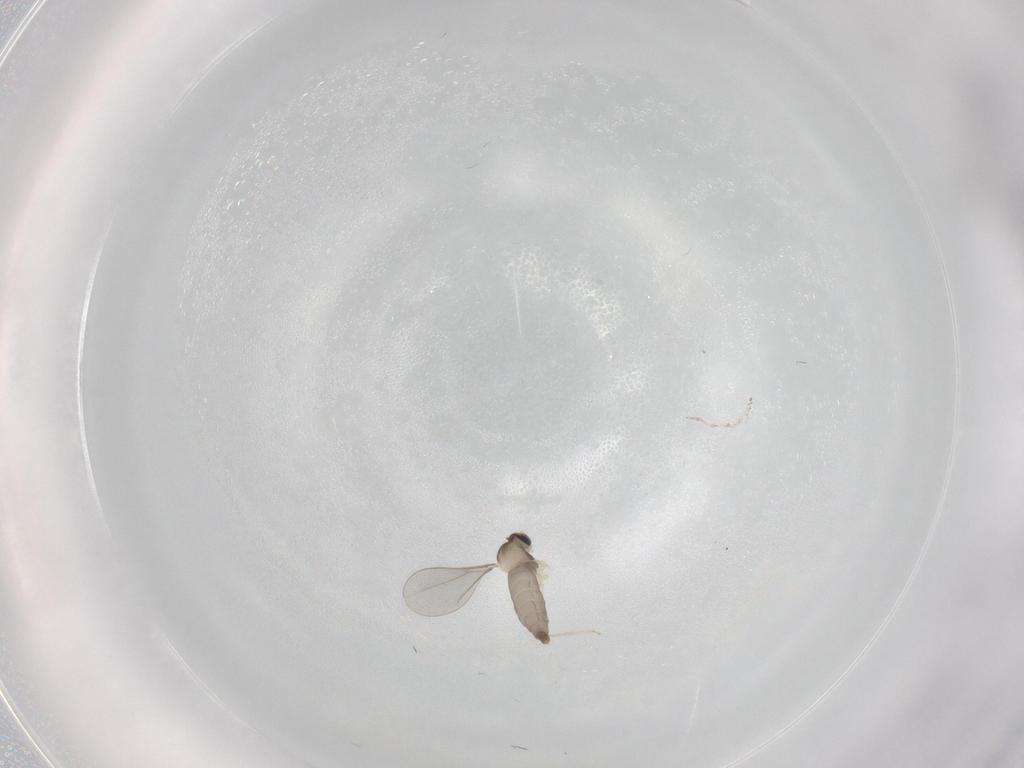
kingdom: Animalia
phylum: Arthropoda
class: Insecta
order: Diptera
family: Cecidomyiidae
